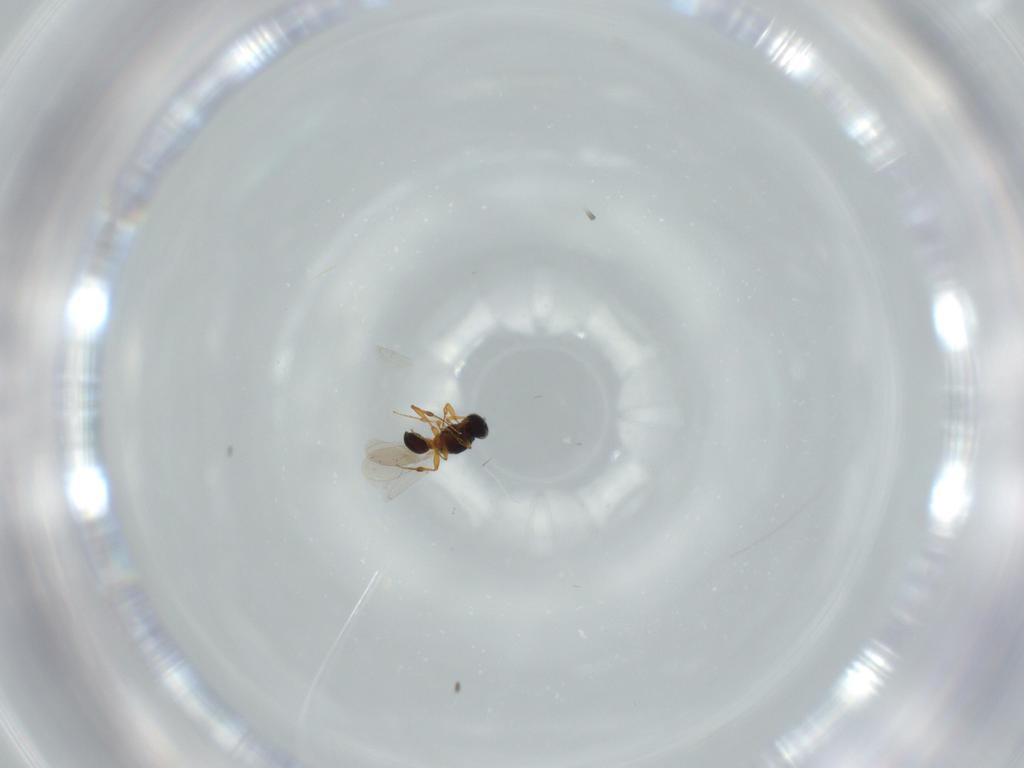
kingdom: Animalia
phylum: Arthropoda
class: Insecta
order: Hymenoptera
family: Platygastridae
